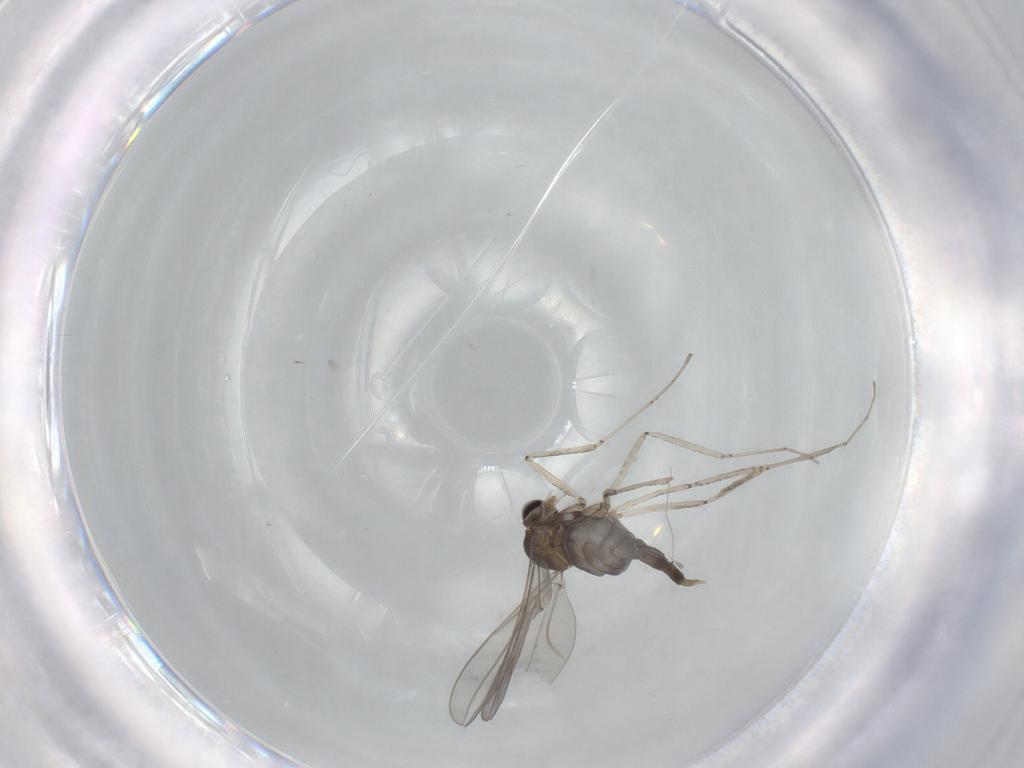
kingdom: Animalia
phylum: Arthropoda
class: Insecta
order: Diptera
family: Cecidomyiidae
